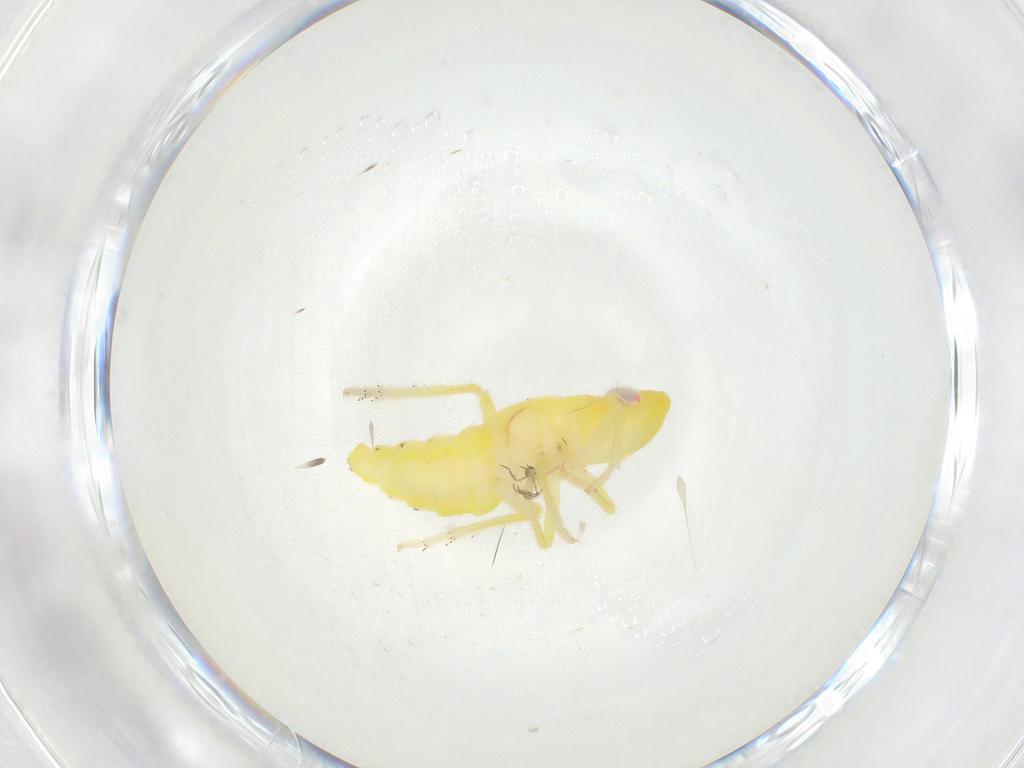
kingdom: Animalia
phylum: Arthropoda
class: Insecta
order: Hemiptera
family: Tropiduchidae
